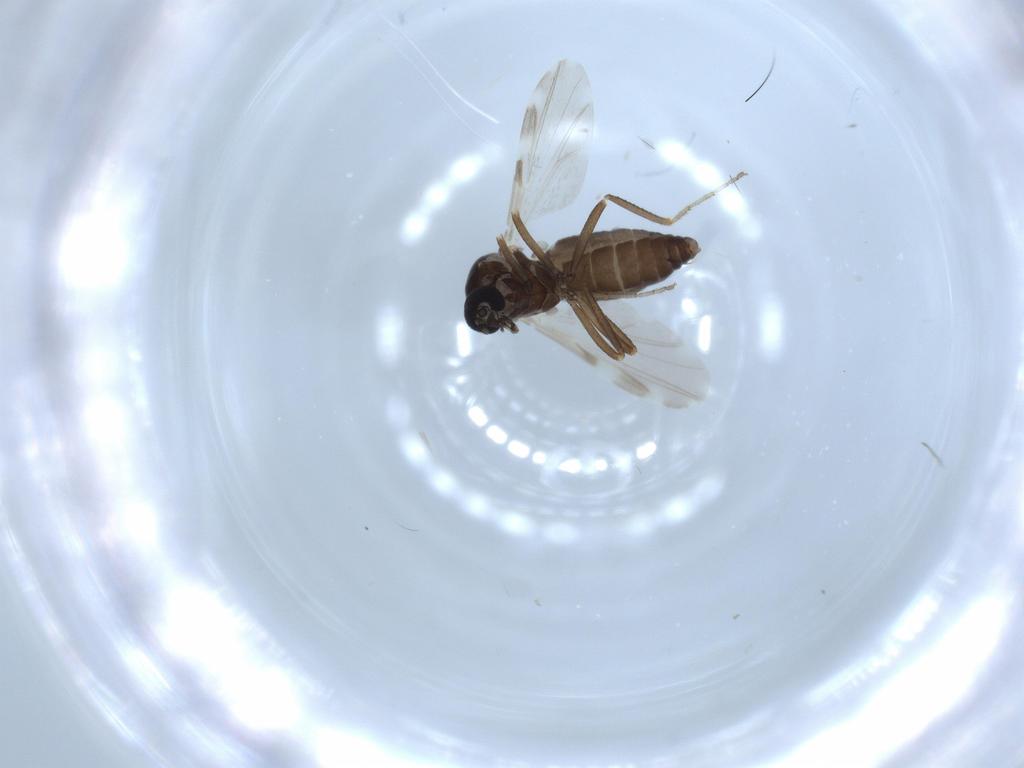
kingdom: Animalia
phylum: Arthropoda
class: Insecta
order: Diptera
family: Ceratopogonidae
